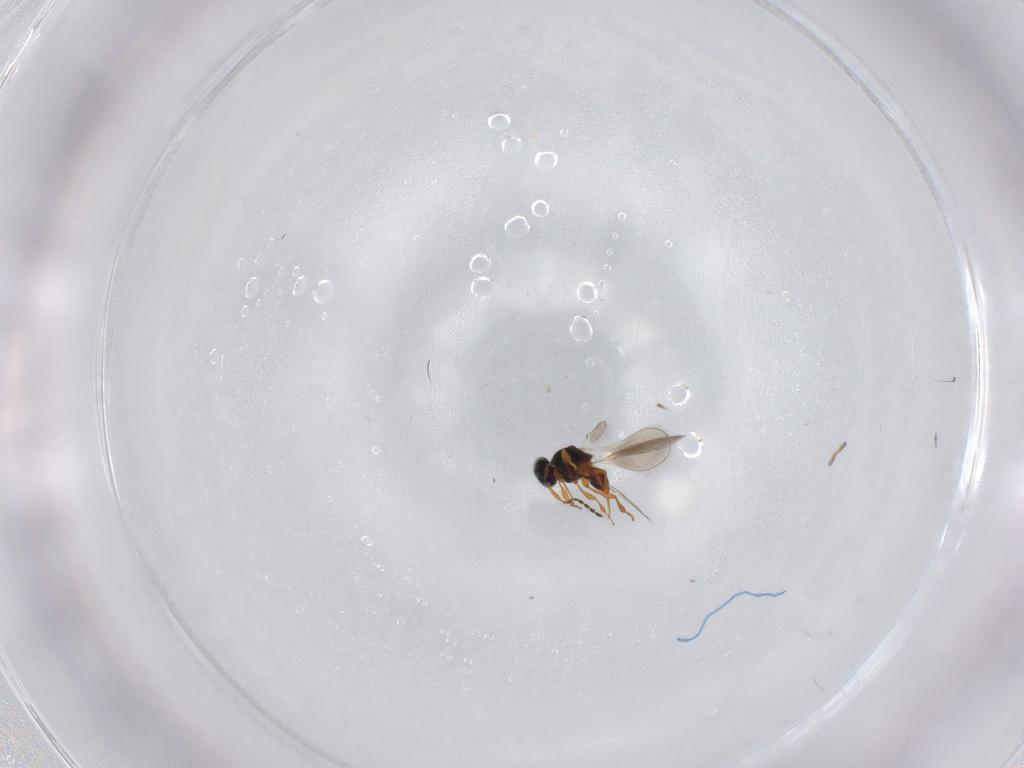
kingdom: Animalia
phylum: Arthropoda
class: Insecta
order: Hymenoptera
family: Platygastridae
